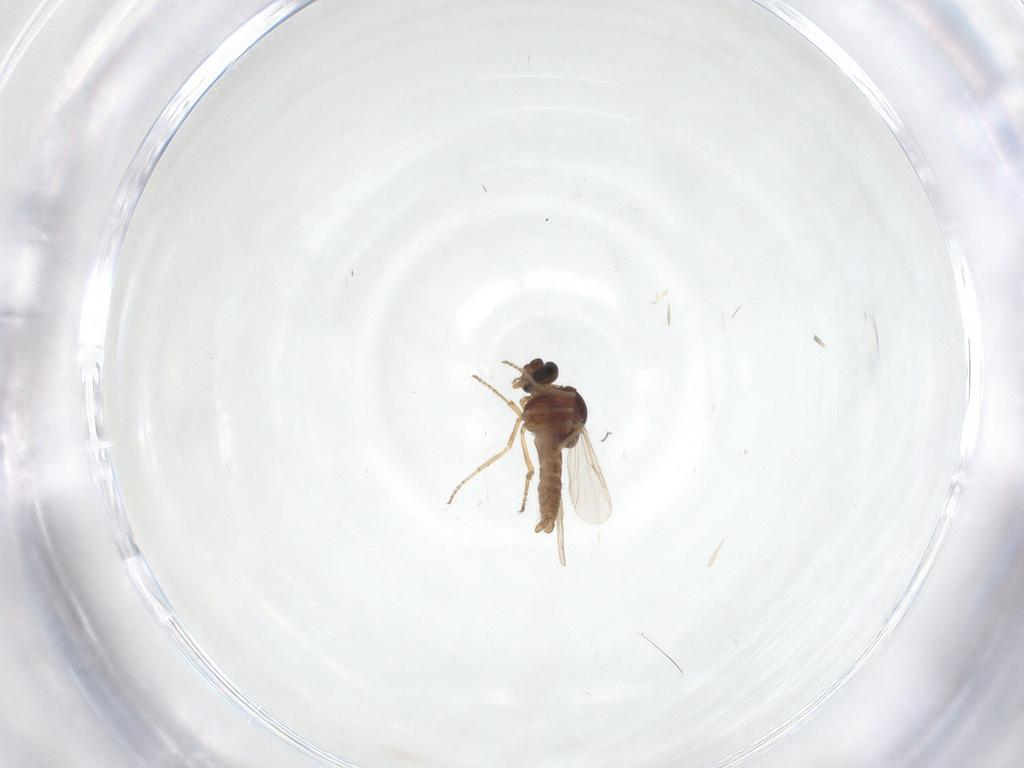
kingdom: Animalia
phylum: Arthropoda
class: Insecta
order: Diptera
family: Ceratopogonidae
